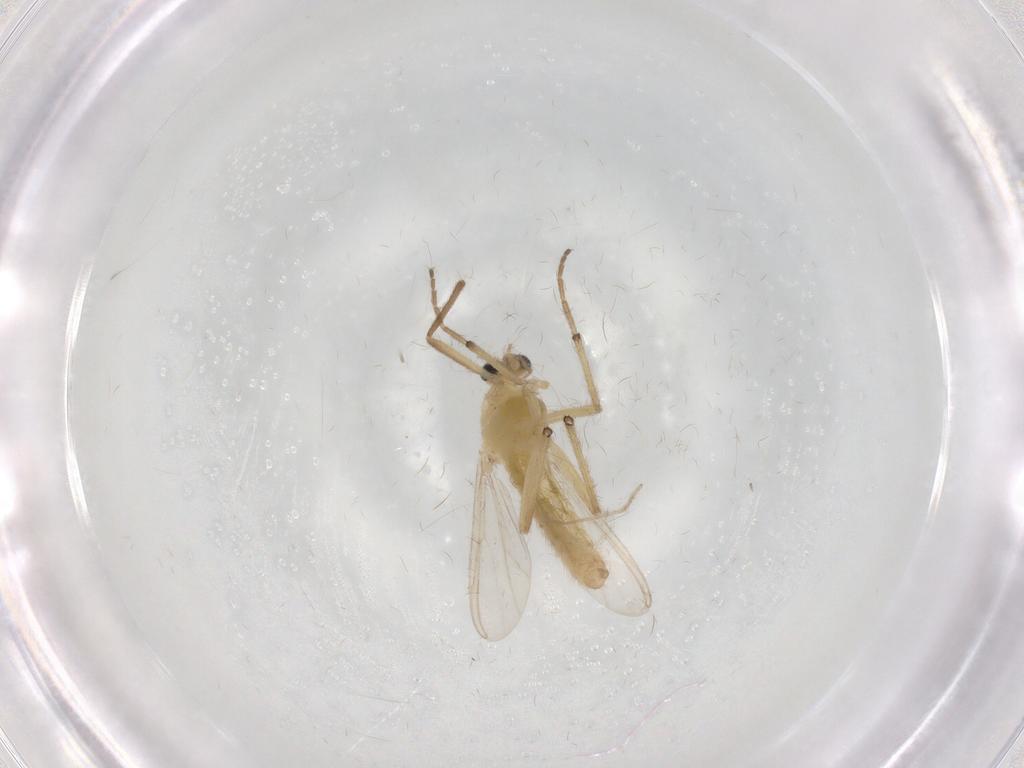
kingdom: Animalia
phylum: Arthropoda
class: Insecta
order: Diptera
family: Chironomidae
